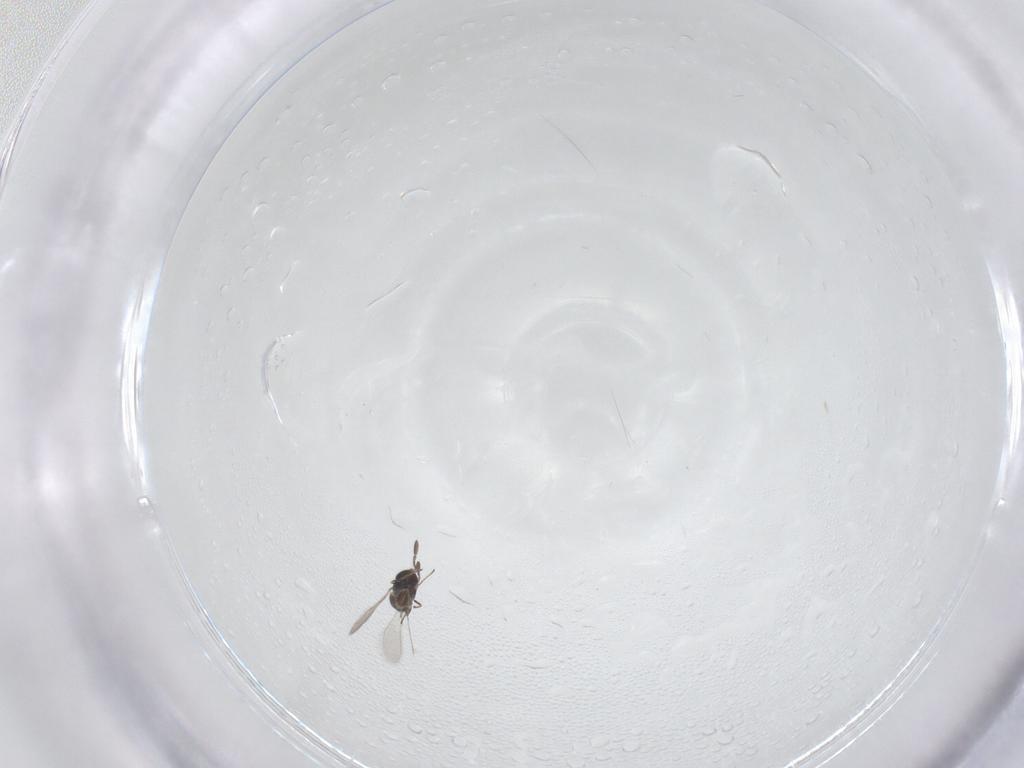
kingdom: Animalia
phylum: Arthropoda
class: Insecta
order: Hymenoptera
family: Mymaridae
